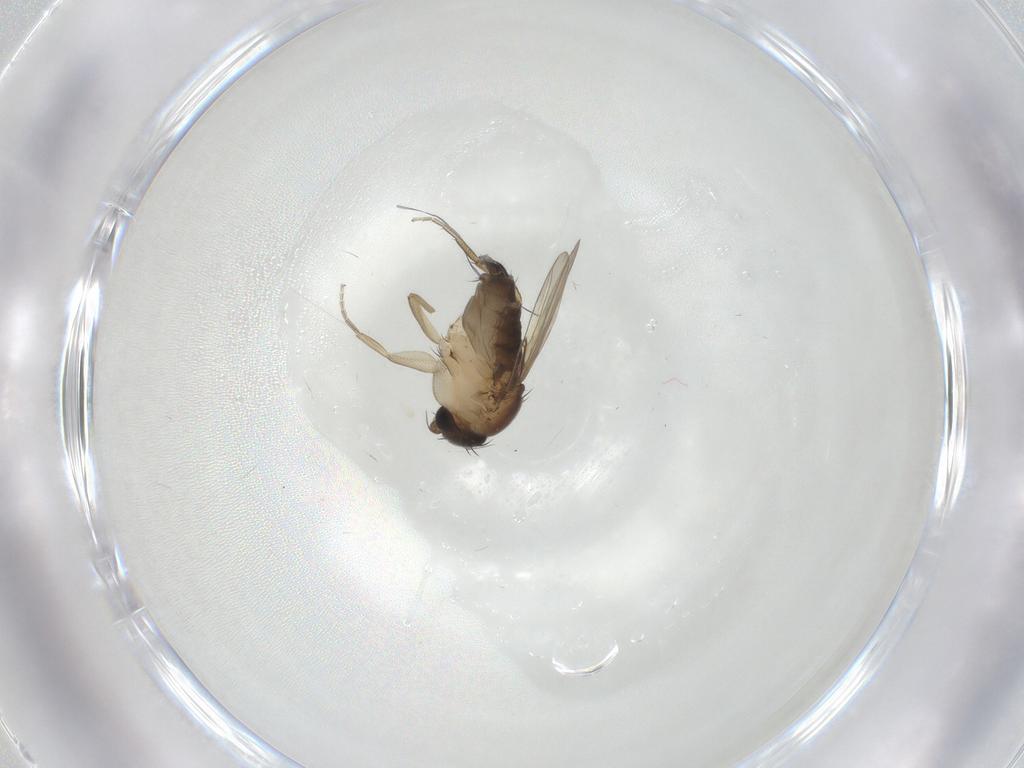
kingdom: Animalia
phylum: Arthropoda
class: Insecta
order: Diptera
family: Phoridae
